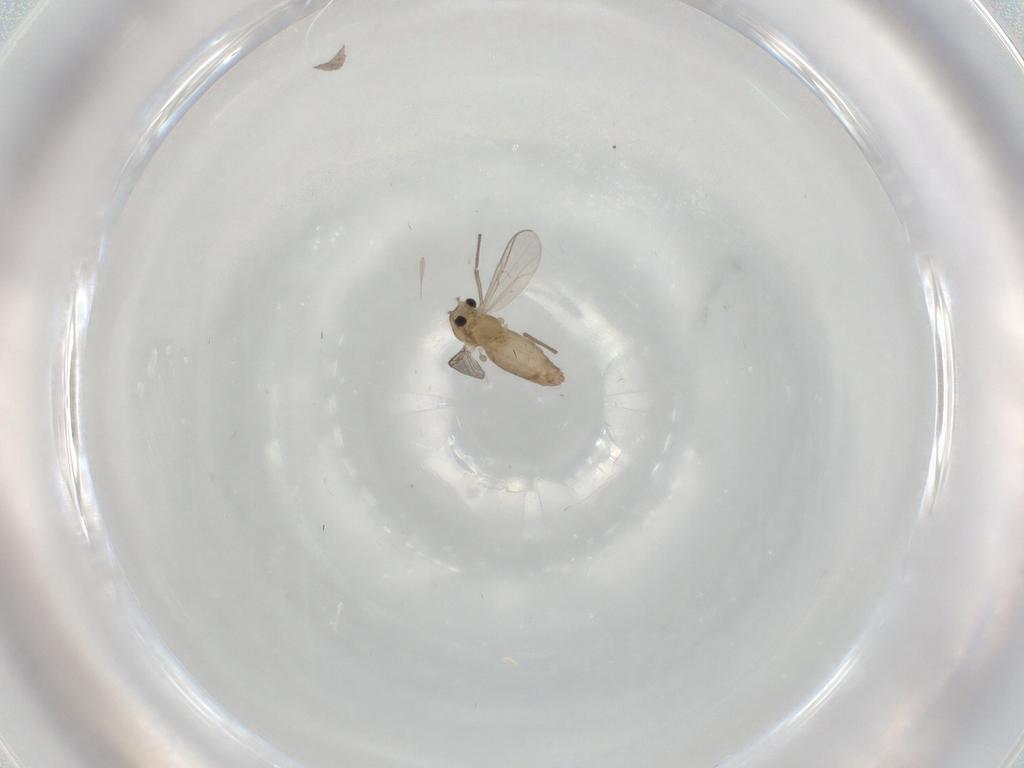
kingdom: Animalia
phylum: Arthropoda
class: Insecta
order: Diptera
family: Chironomidae
